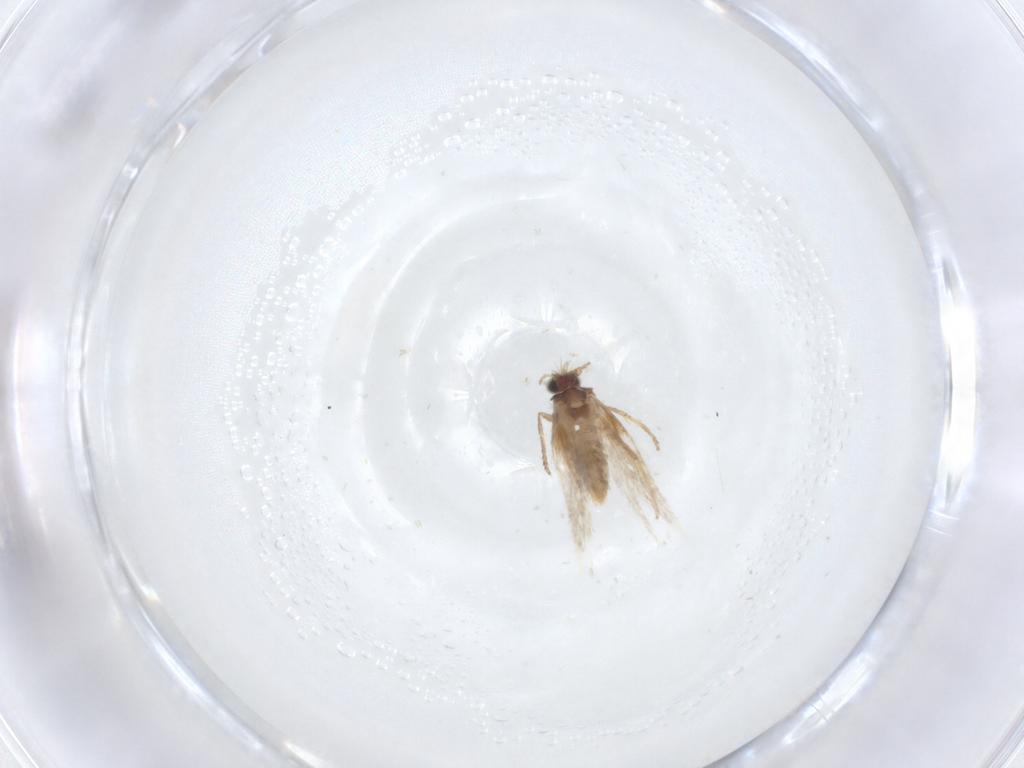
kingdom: Animalia
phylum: Arthropoda
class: Insecta
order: Lepidoptera
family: Nepticulidae
